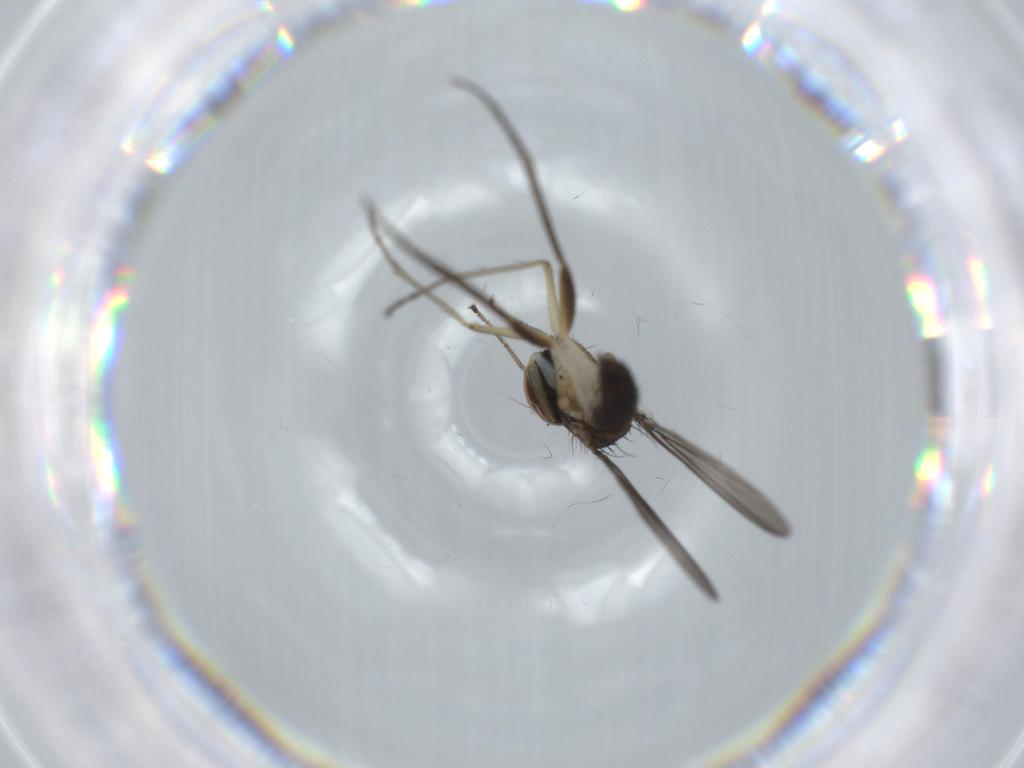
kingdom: Animalia
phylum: Arthropoda
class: Insecta
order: Diptera
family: Dolichopodidae
